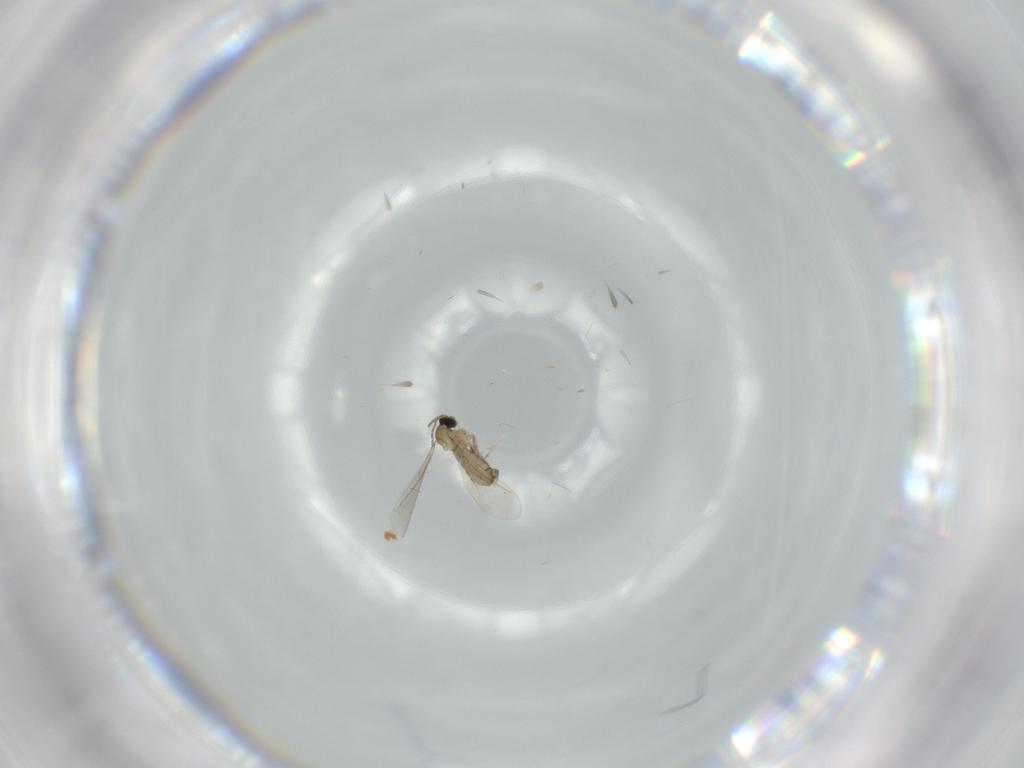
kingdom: Animalia
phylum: Arthropoda
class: Insecta
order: Diptera
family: Cecidomyiidae
